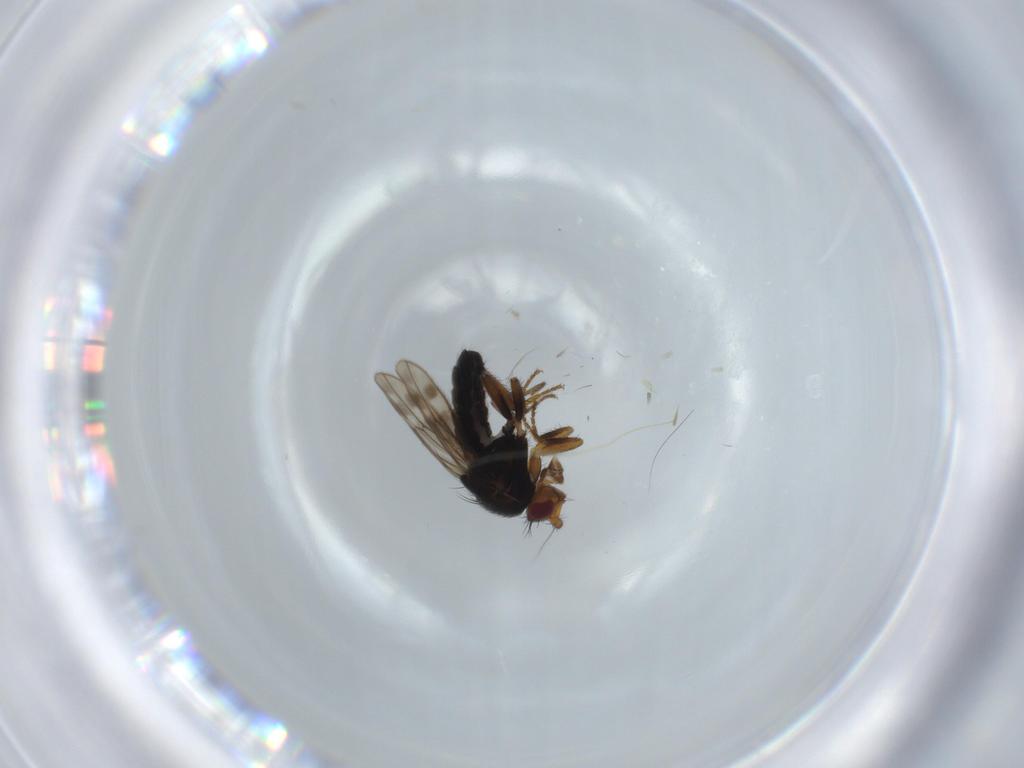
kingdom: Animalia
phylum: Arthropoda
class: Insecta
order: Diptera
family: Sphaeroceridae
